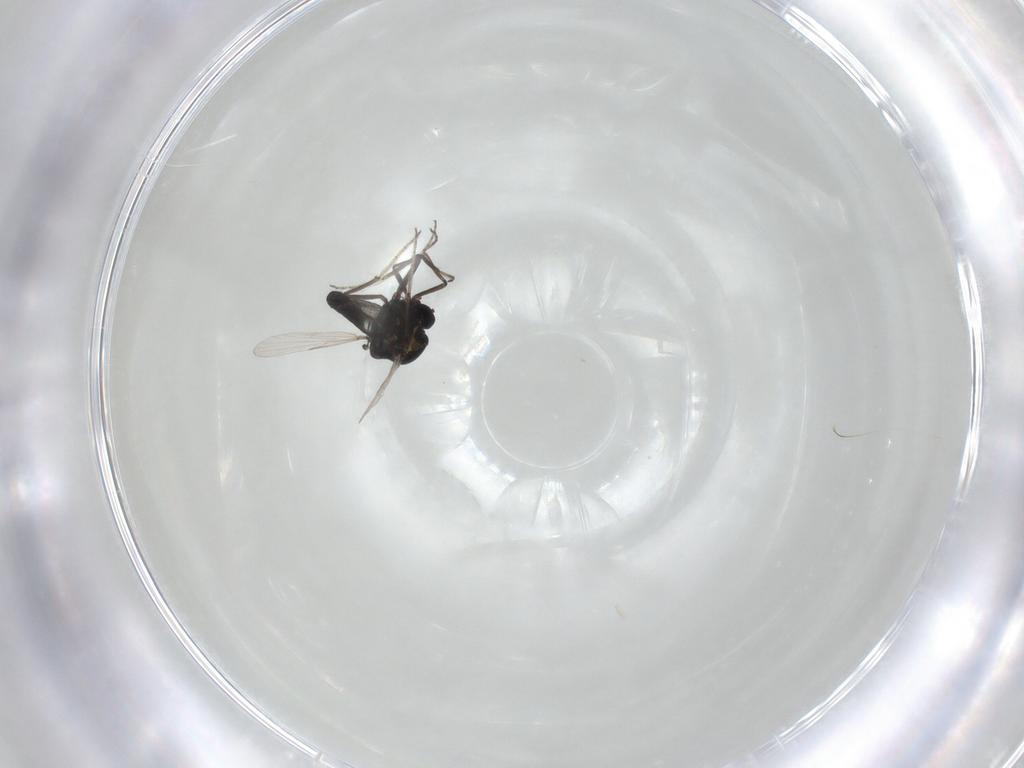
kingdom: Animalia
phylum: Arthropoda
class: Insecta
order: Diptera
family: Ceratopogonidae
